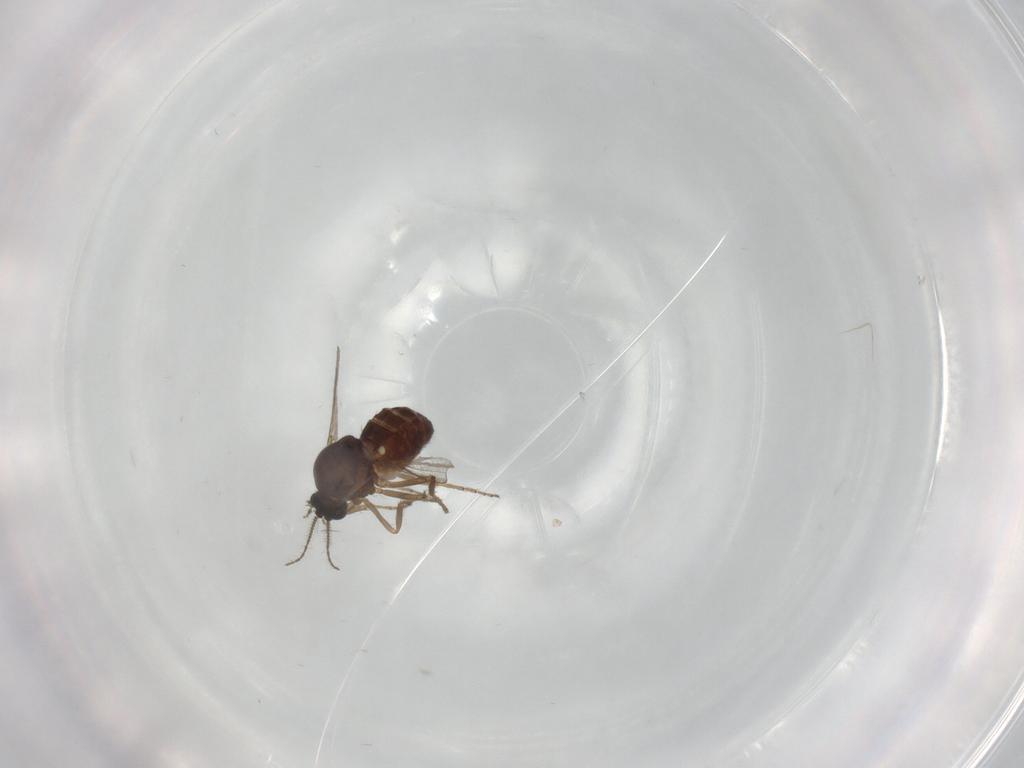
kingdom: Animalia
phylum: Arthropoda
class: Insecta
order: Diptera
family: Ceratopogonidae
